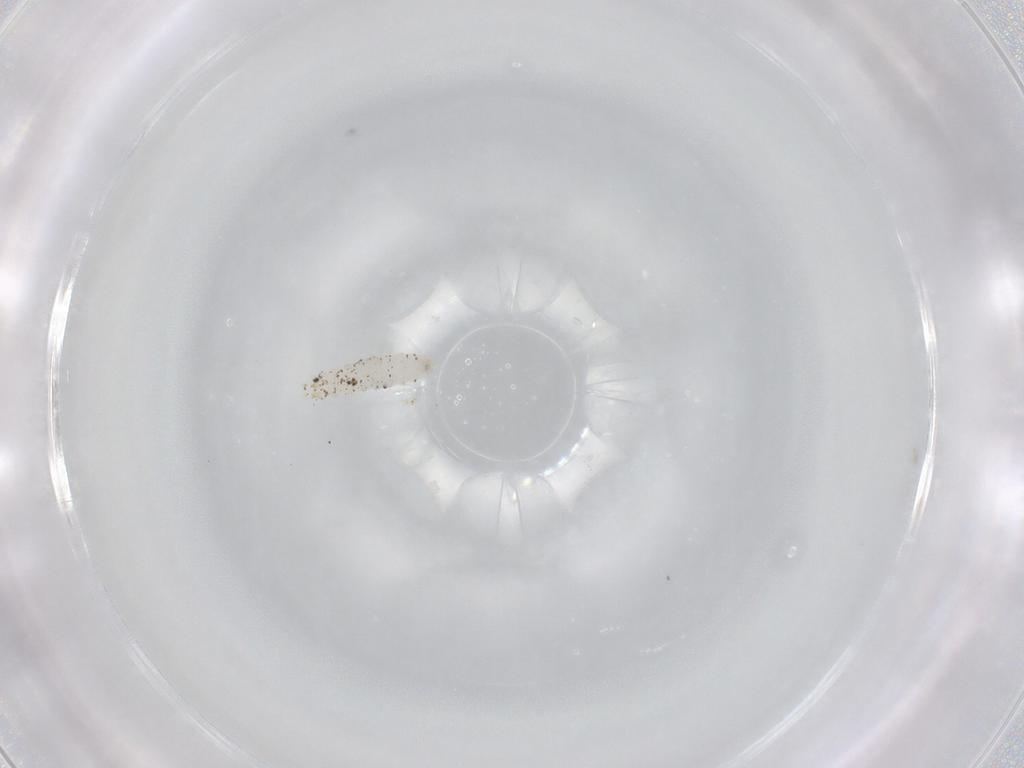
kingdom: Animalia
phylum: Arthropoda
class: Insecta
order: Diptera
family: Phoridae
